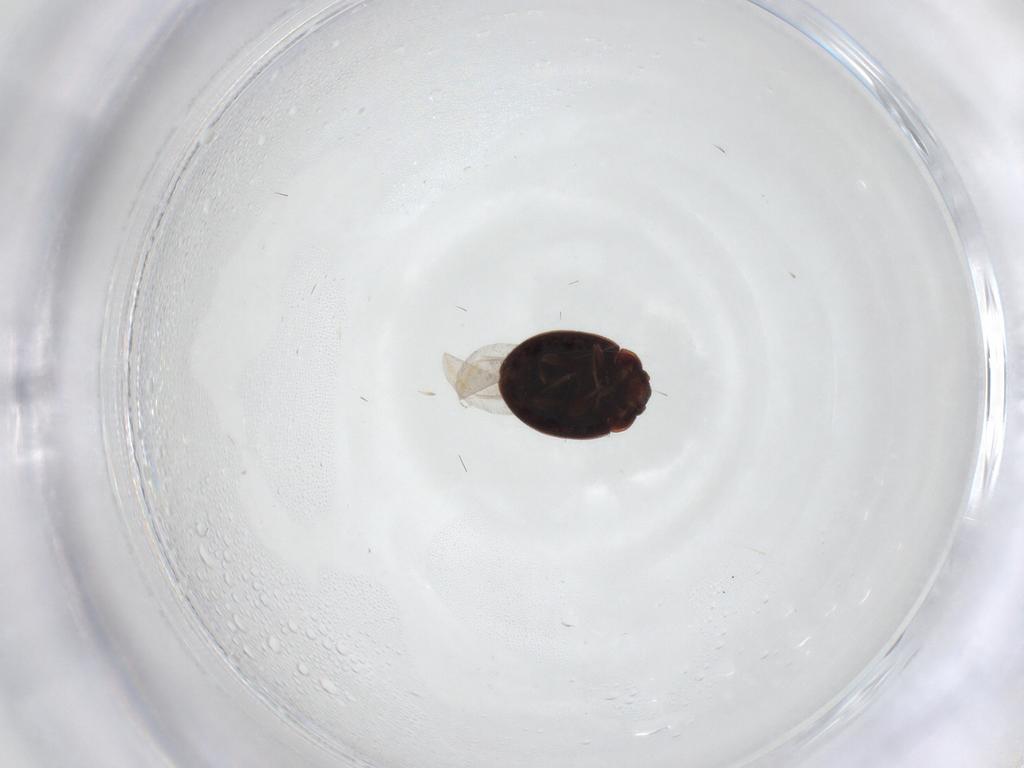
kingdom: Animalia
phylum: Arthropoda
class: Insecta
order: Coleoptera
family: Coccinellidae
